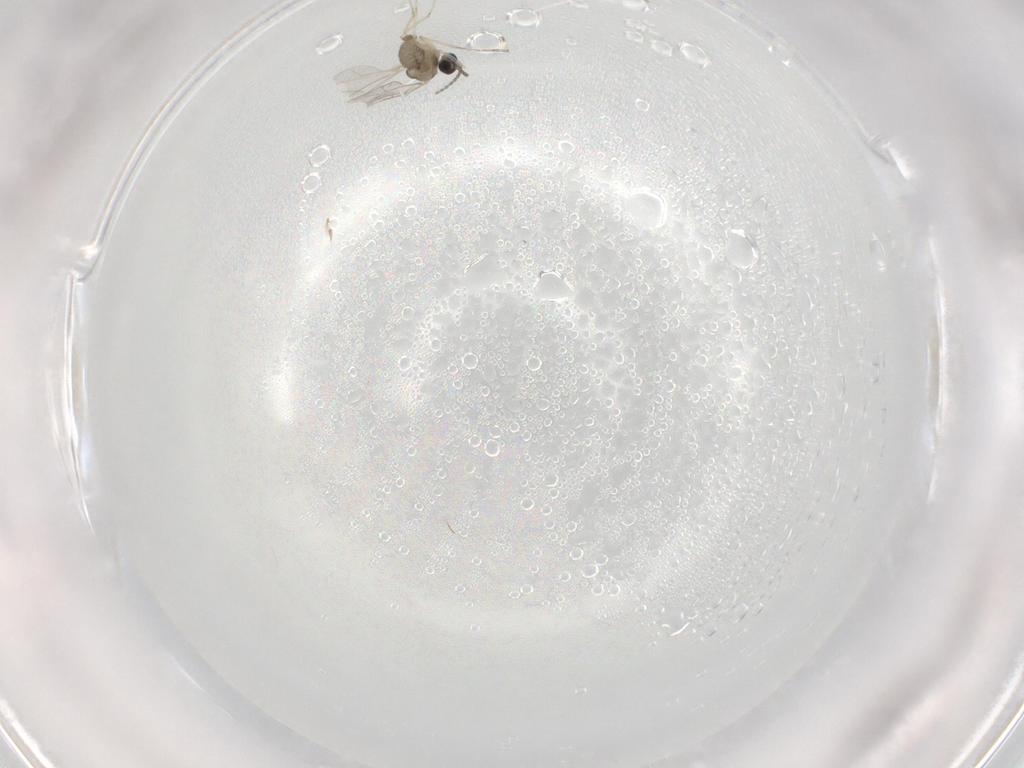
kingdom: Animalia
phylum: Arthropoda
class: Insecta
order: Diptera
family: Cecidomyiidae
